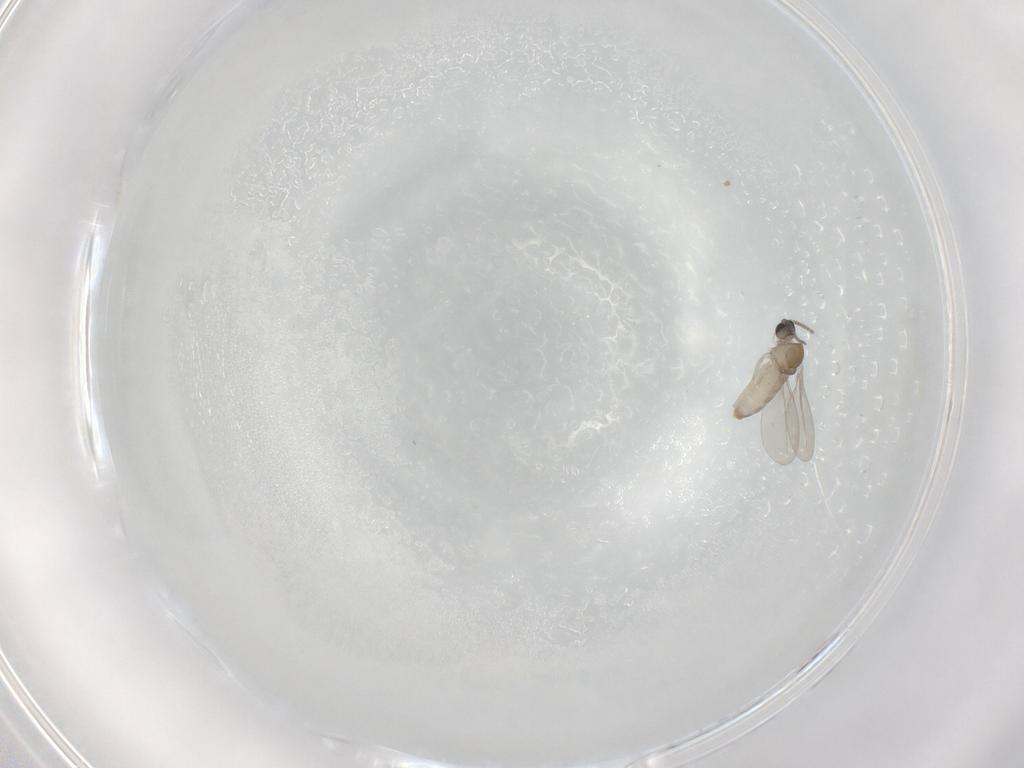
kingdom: Animalia
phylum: Arthropoda
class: Insecta
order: Diptera
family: Cecidomyiidae
